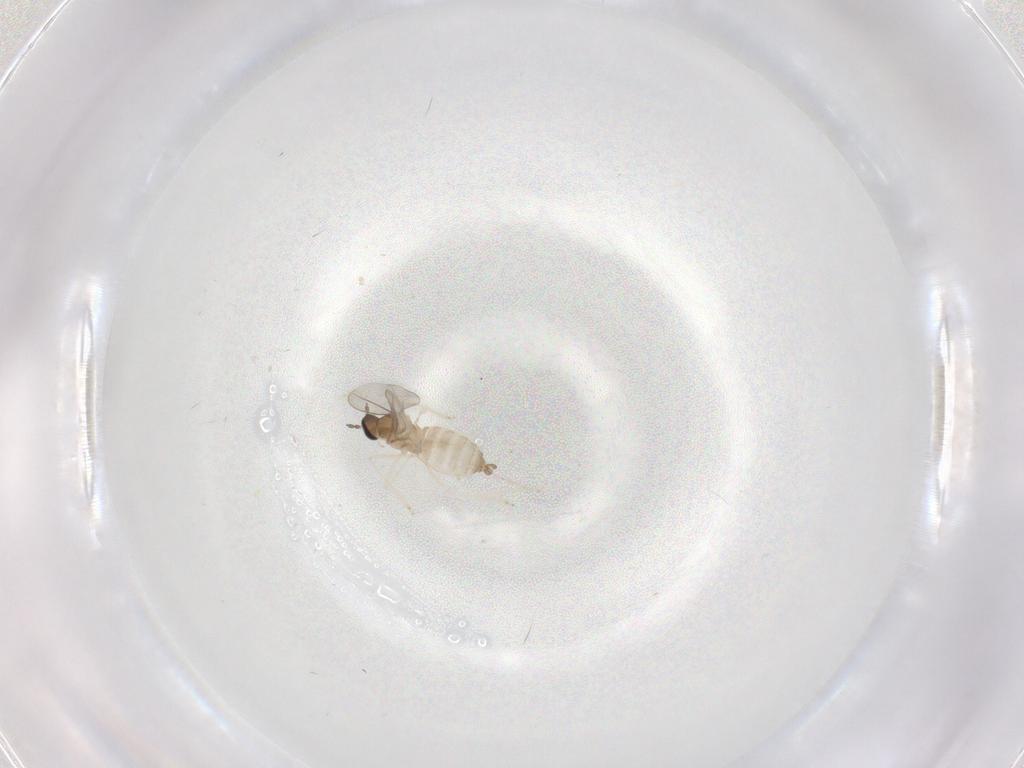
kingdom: Animalia
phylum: Arthropoda
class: Insecta
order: Diptera
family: Cecidomyiidae
